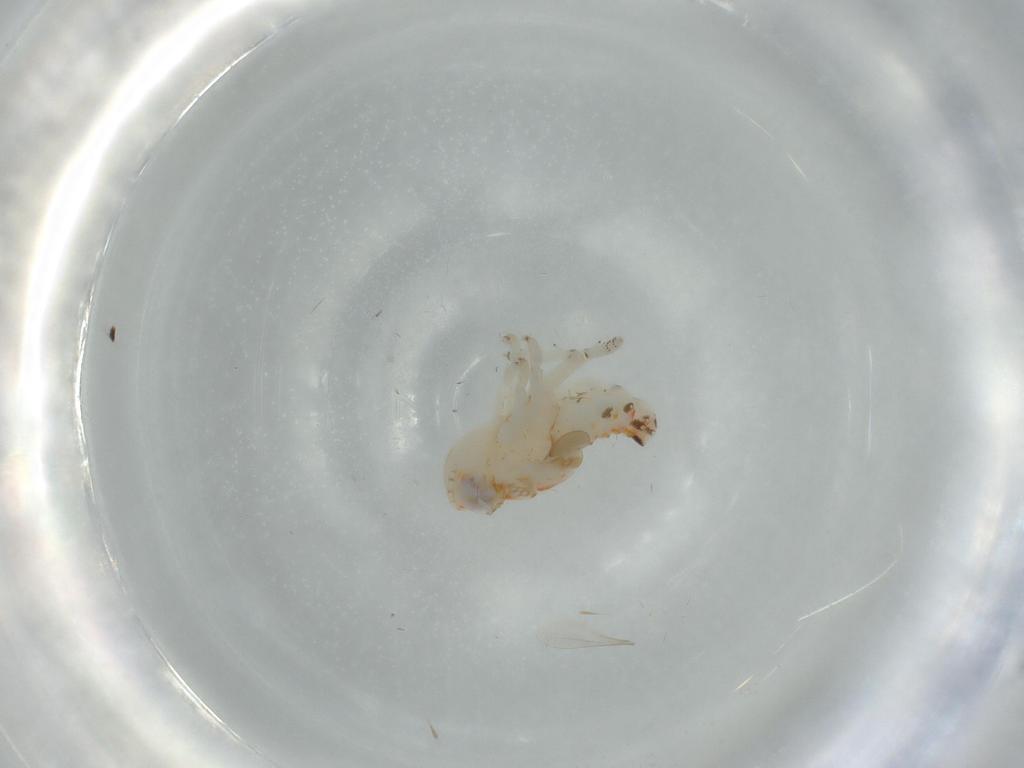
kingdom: Animalia
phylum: Arthropoda
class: Insecta
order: Hemiptera
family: Nogodinidae
